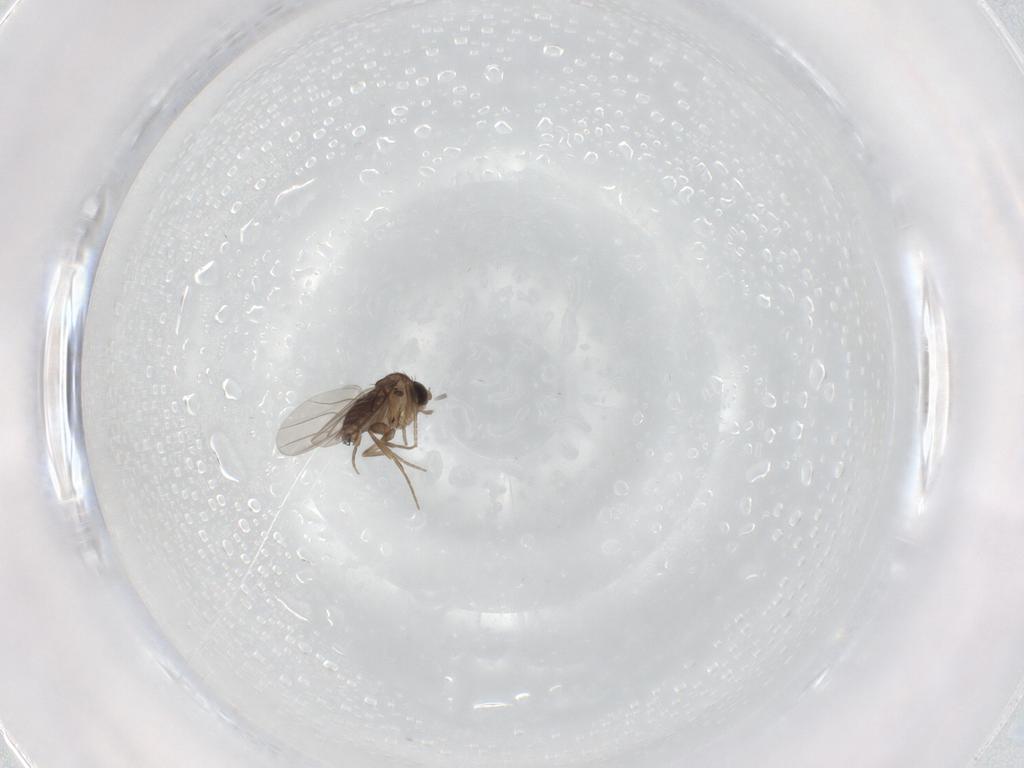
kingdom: Animalia
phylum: Arthropoda
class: Insecta
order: Diptera
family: Phoridae
